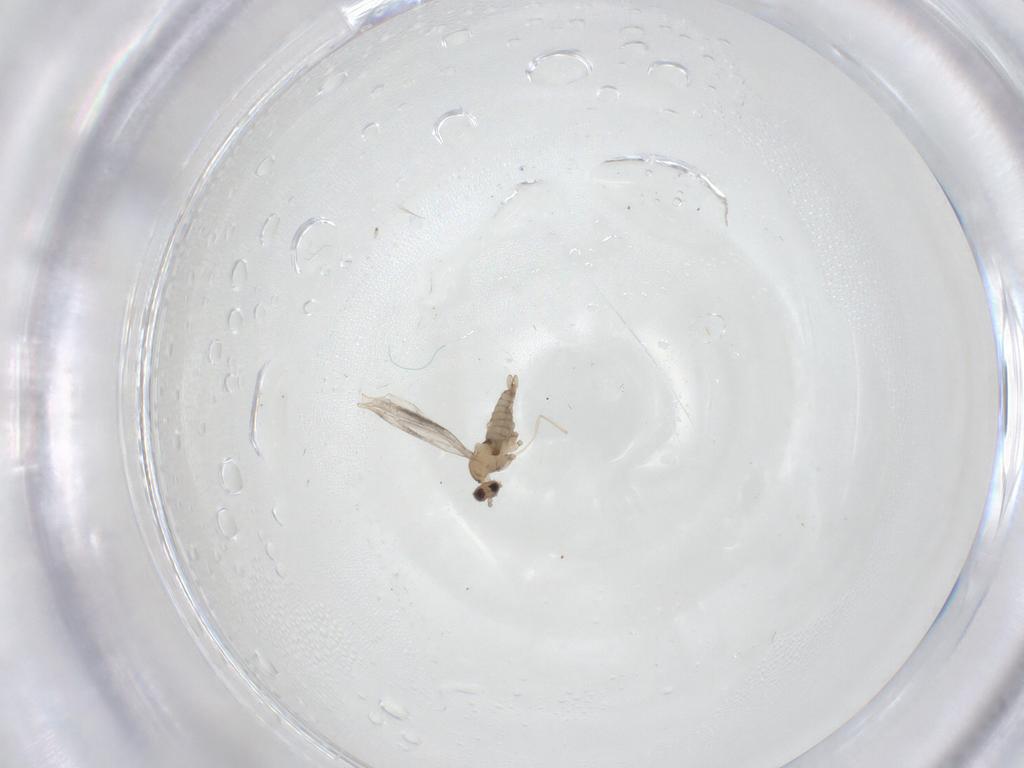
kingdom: Animalia
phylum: Arthropoda
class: Insecta
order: Diptera
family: Cecidomyiidae
